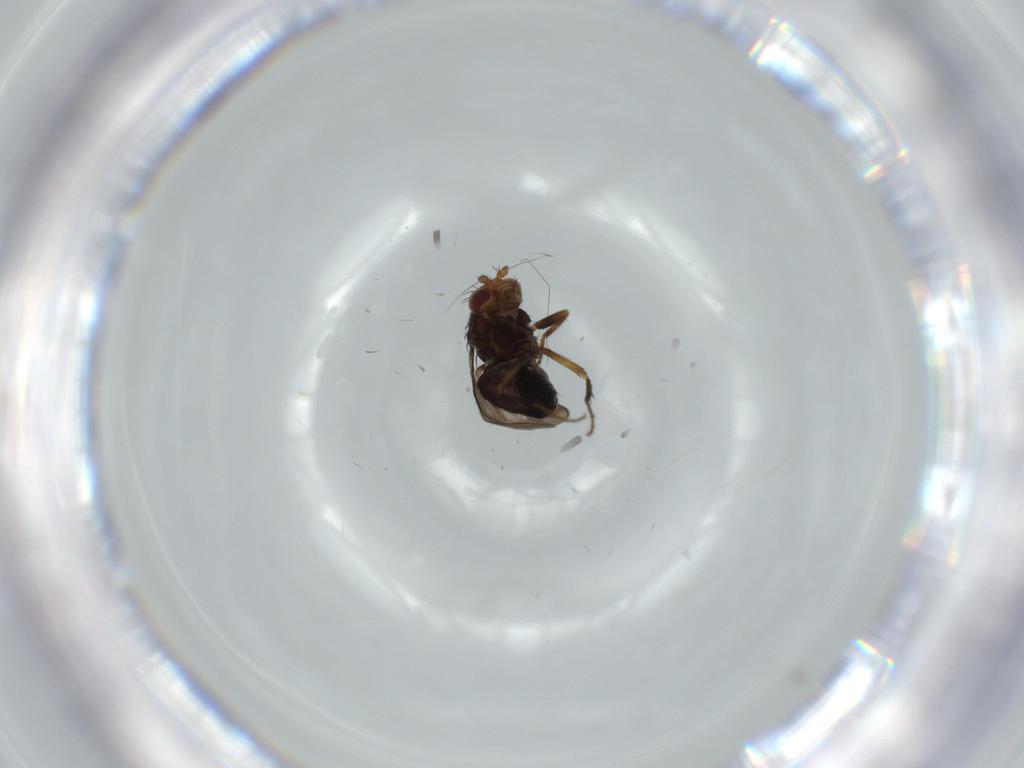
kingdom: Animalia
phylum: Arthropoda
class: Insecta
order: Diptera
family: Sphaeroceridae
